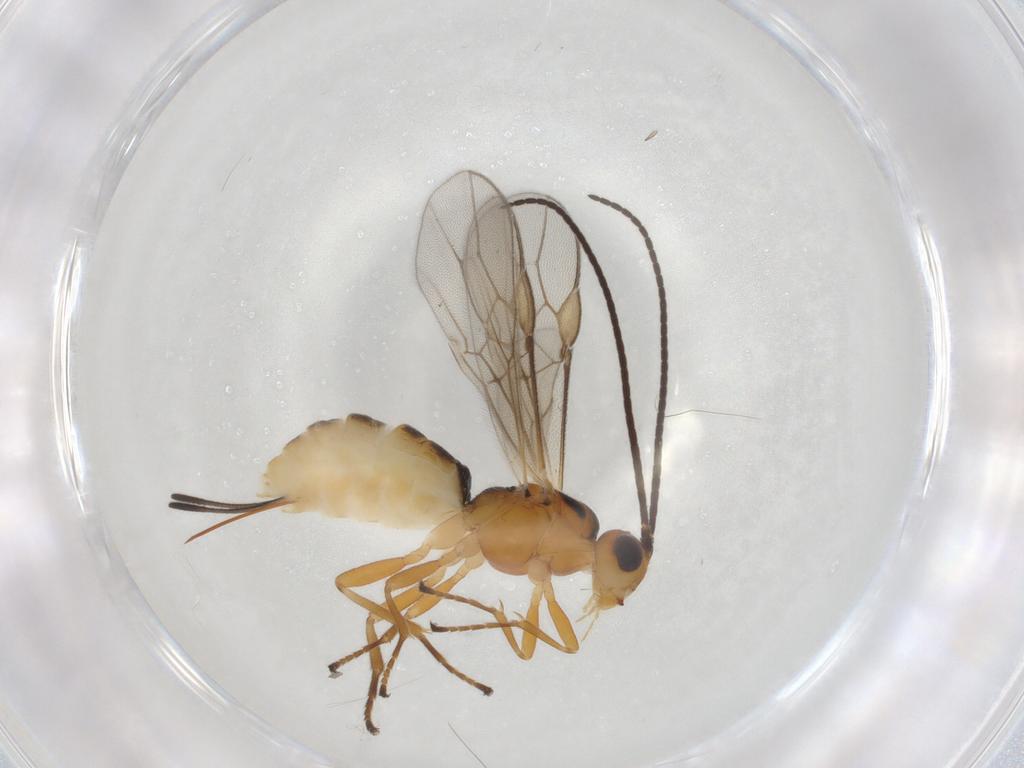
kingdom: Animalia
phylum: Arthropoda
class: Insecta
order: Hymenoptera
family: Braconidae
